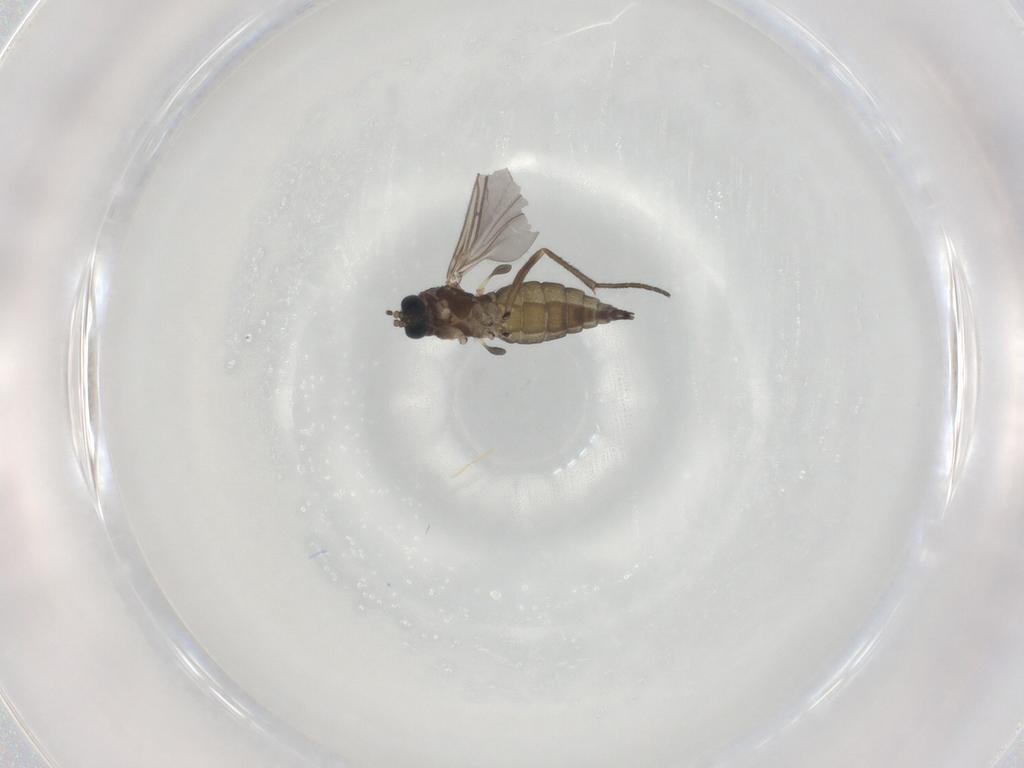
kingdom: Animalia
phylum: Arthropoda
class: Insecta
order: Diptera
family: Sciaridae
